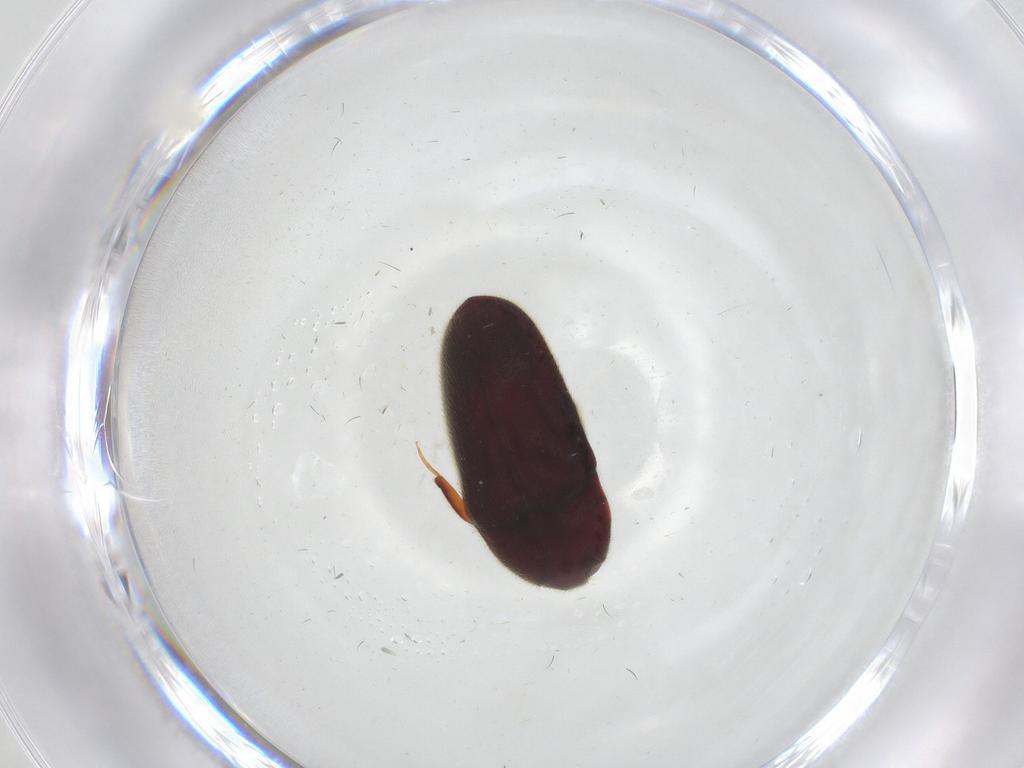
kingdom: Animalia
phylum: Arthropoda
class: Insecta
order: Coleoptera
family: Throscidae
